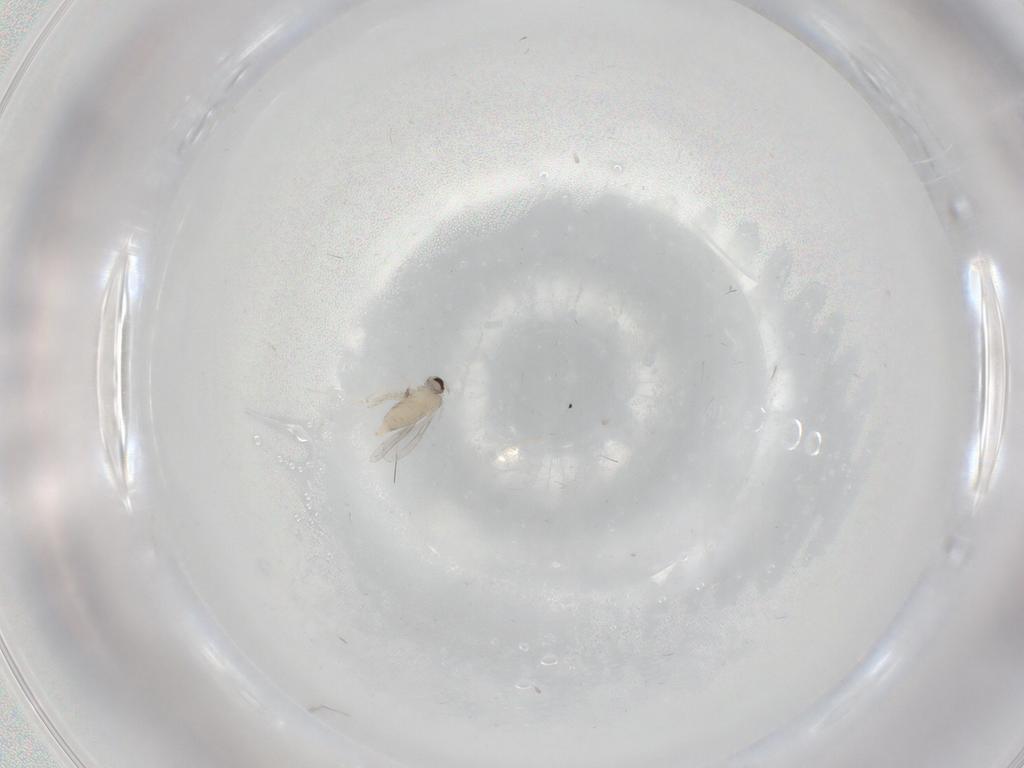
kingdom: Animalia
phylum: Arthropoda
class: Insecta
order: Diptera
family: Cecidomyiidae
